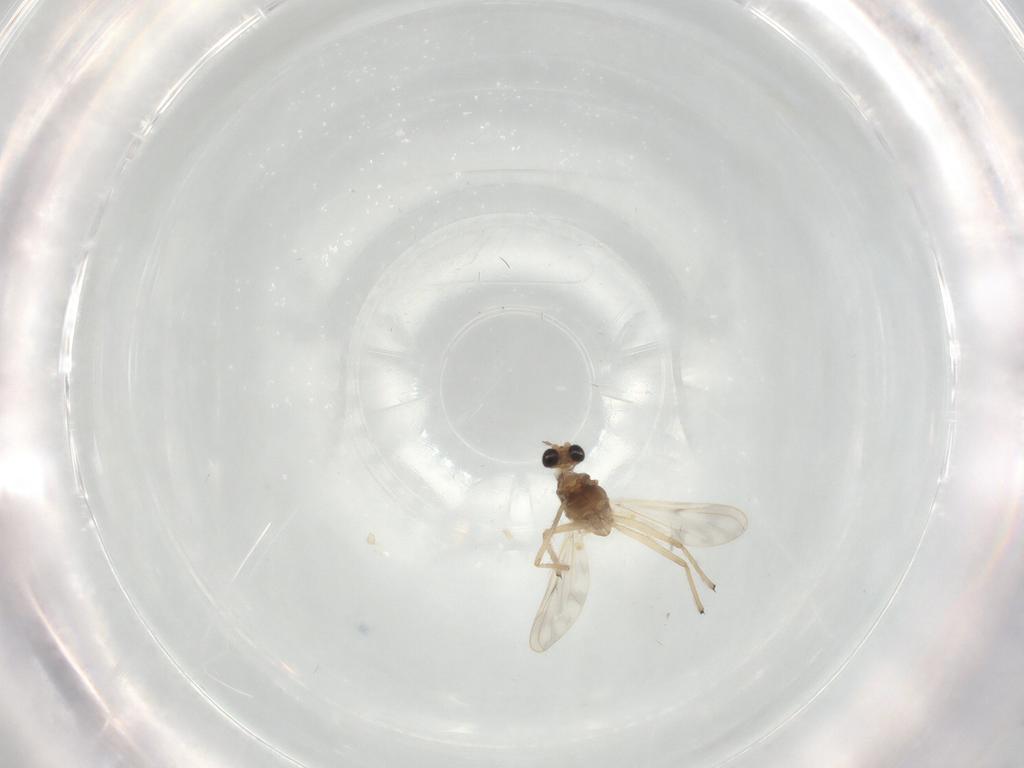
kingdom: Animalia
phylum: Arthropoda
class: Insecta
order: Diptera
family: Chironomidae
